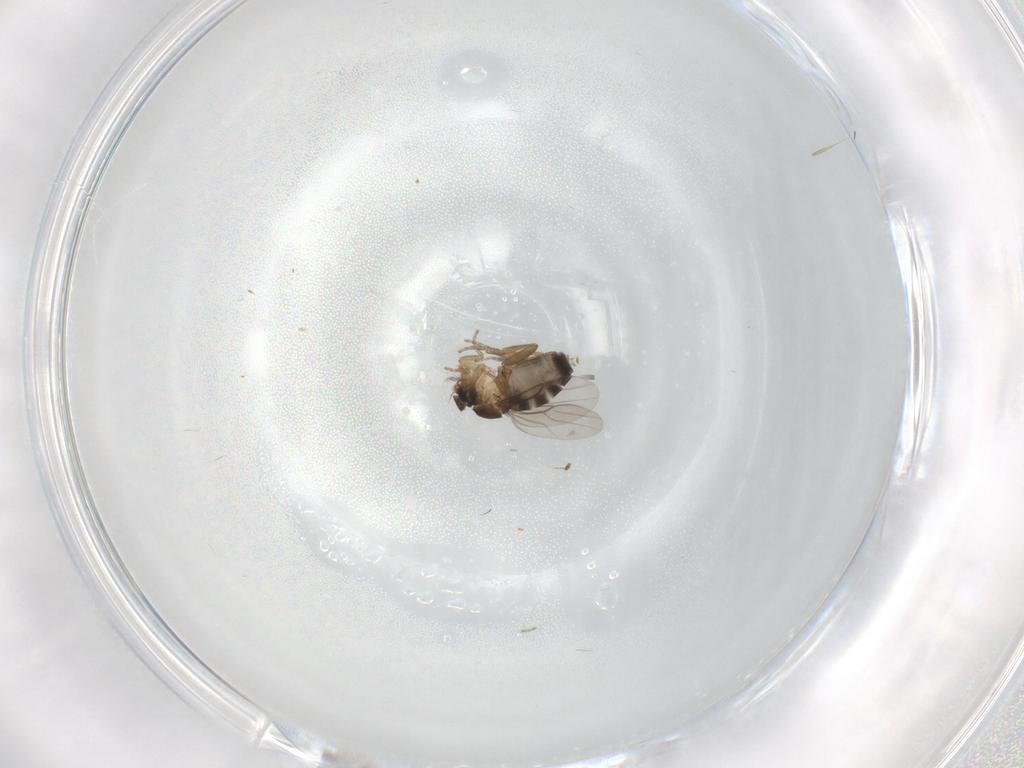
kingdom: Animalia
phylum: Arthropoda
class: Insecta
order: Diptera
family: Phoridae
